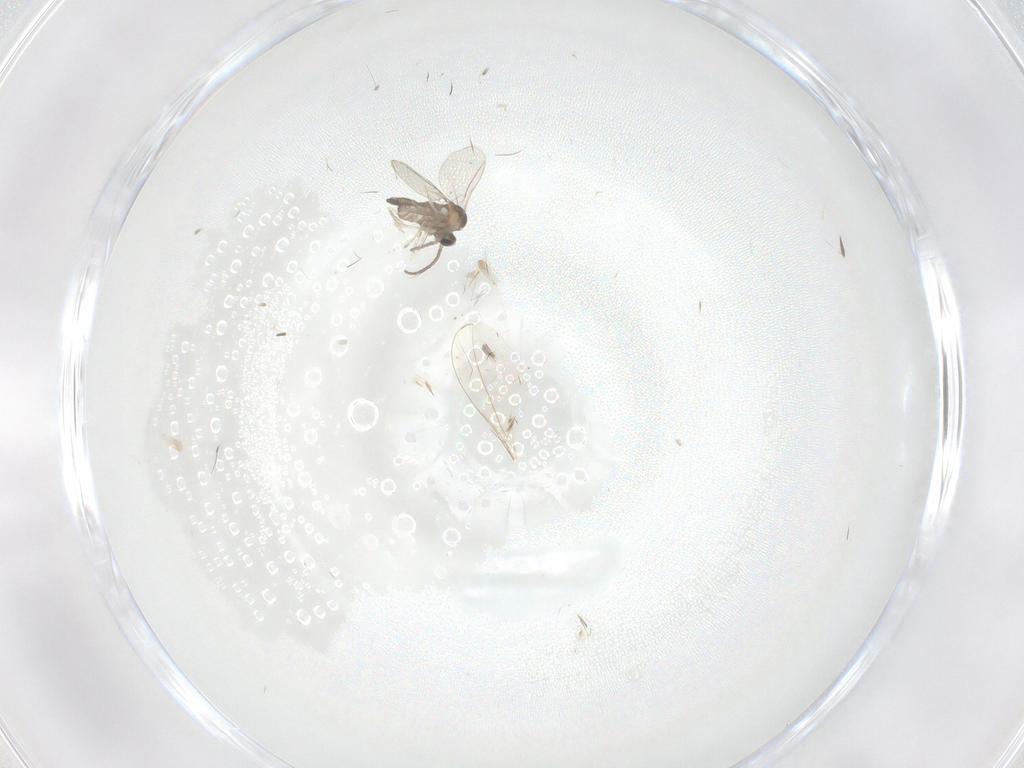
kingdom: Animalia
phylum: Arthropoda
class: Insecta
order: Diptera
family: Ceratopogonidae
